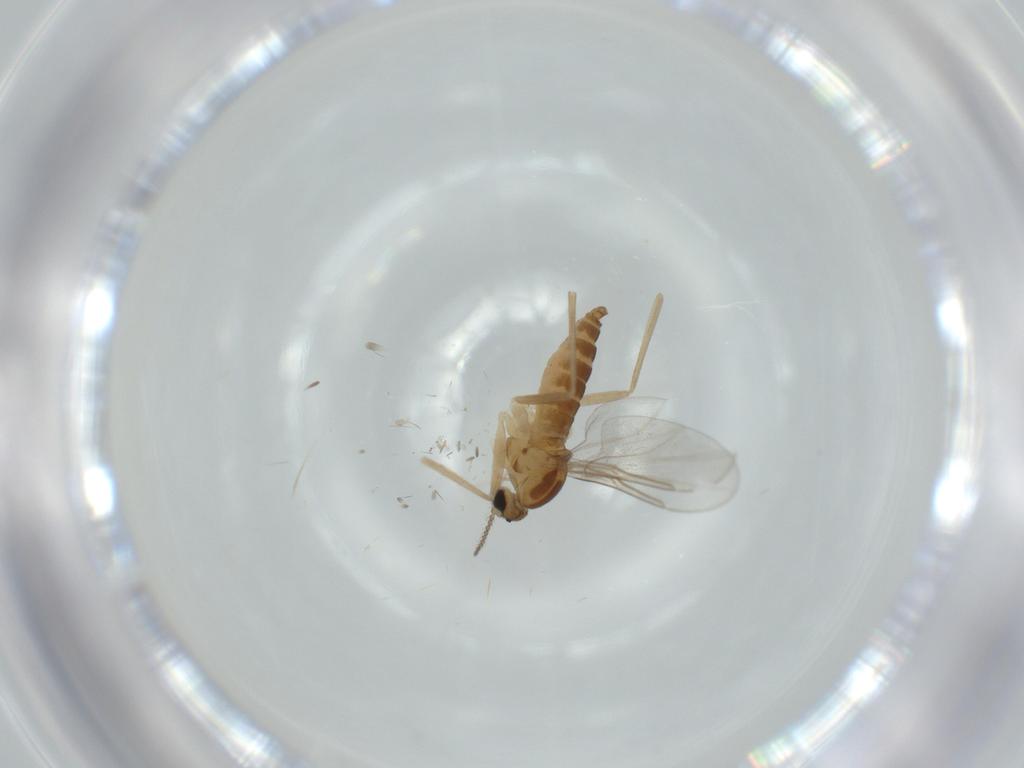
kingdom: Animalia
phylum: Arthropoda
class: Insecta
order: Diptera
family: Cecidomyiidae
